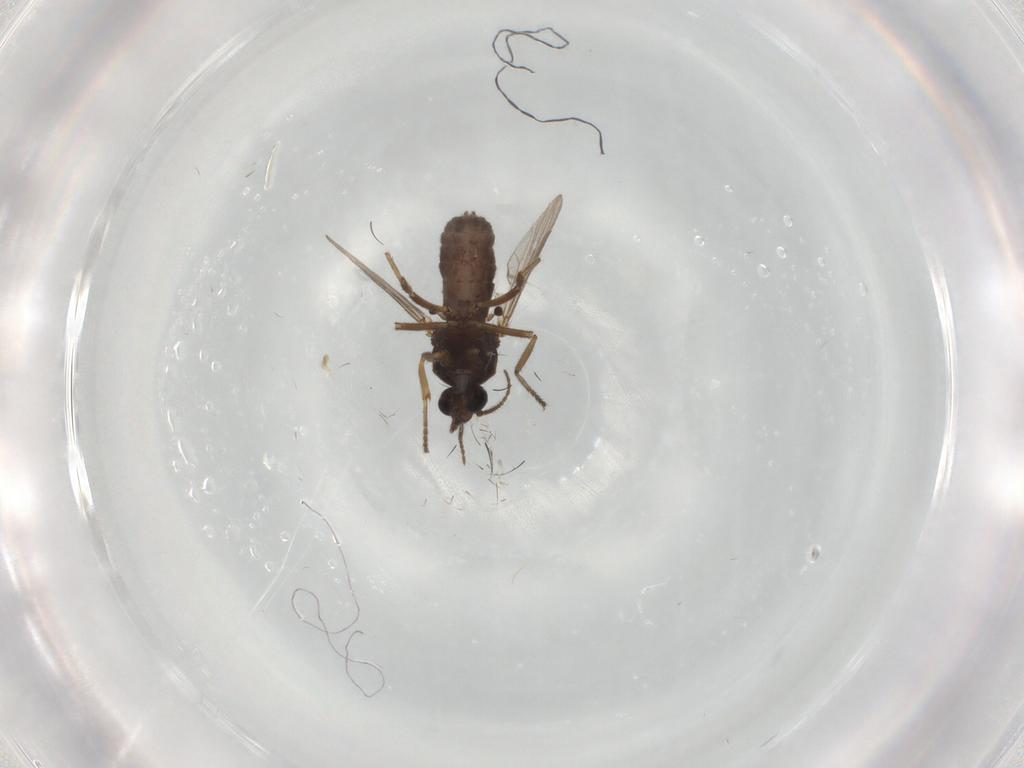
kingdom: Animalia
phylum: Arthropoda
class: Insecta
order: Diptera
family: Ceratopogonidae
